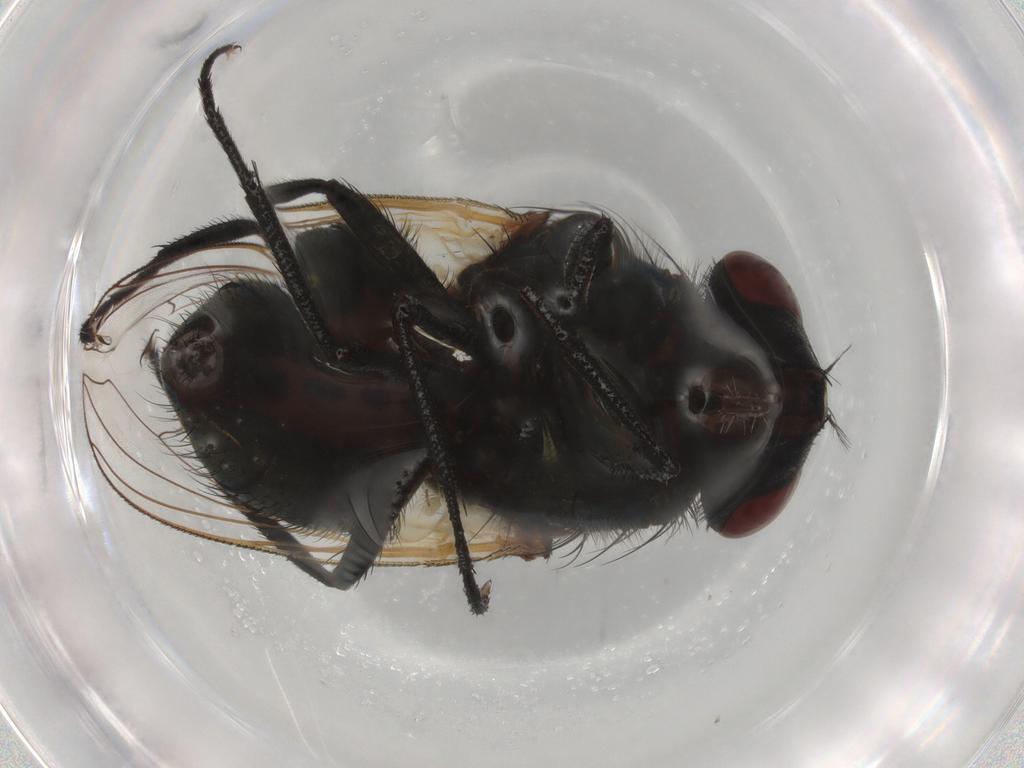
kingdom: Animalia
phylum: Arthropoda
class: Insecta
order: Diptera
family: Muscidae
